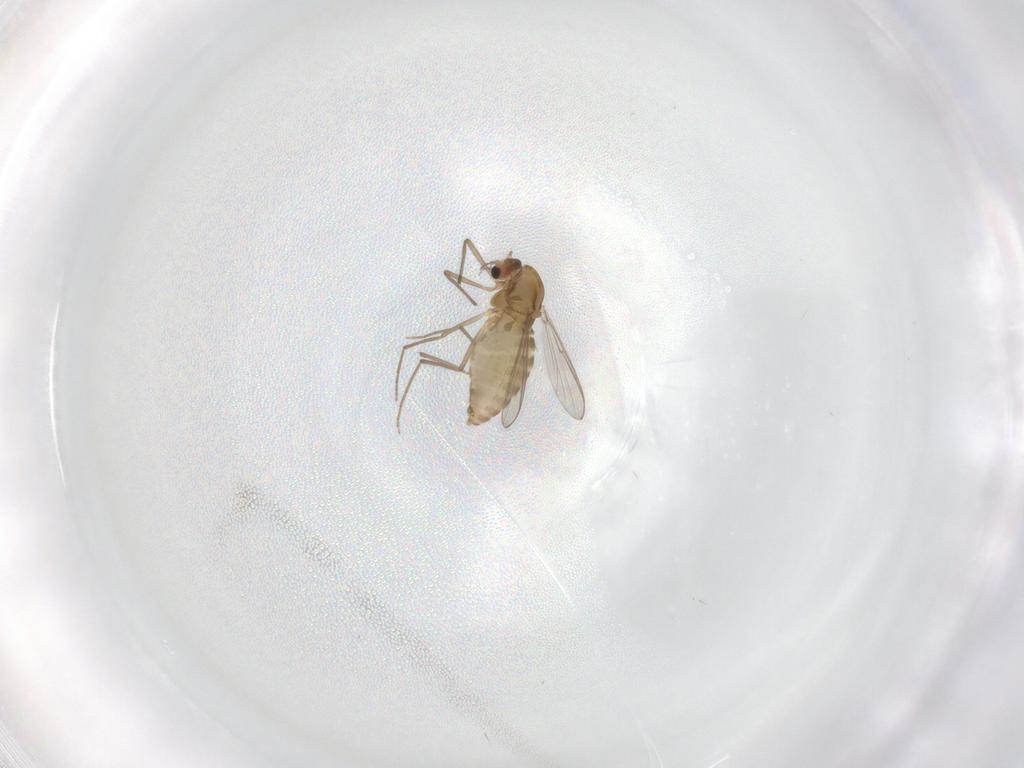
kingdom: Animalia
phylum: Arthropoda
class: Insecta
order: Diptera
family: Chironomidae
